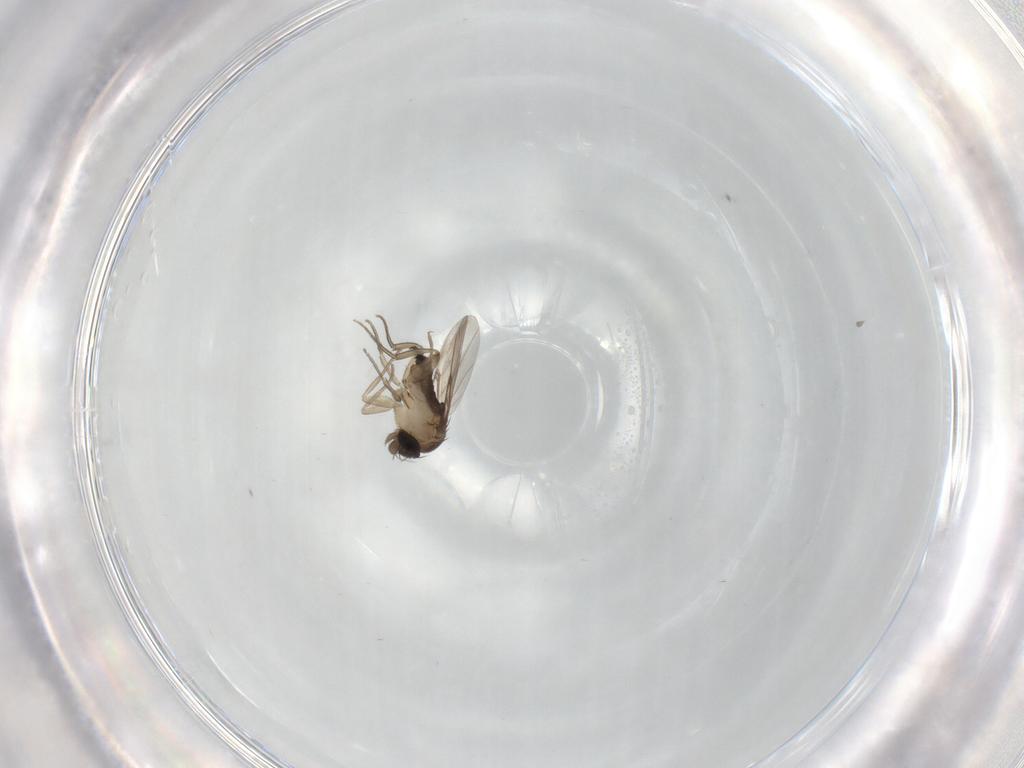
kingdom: Animalia
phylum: Arthropoda
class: Insecta
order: Diptera
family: Phoridae
